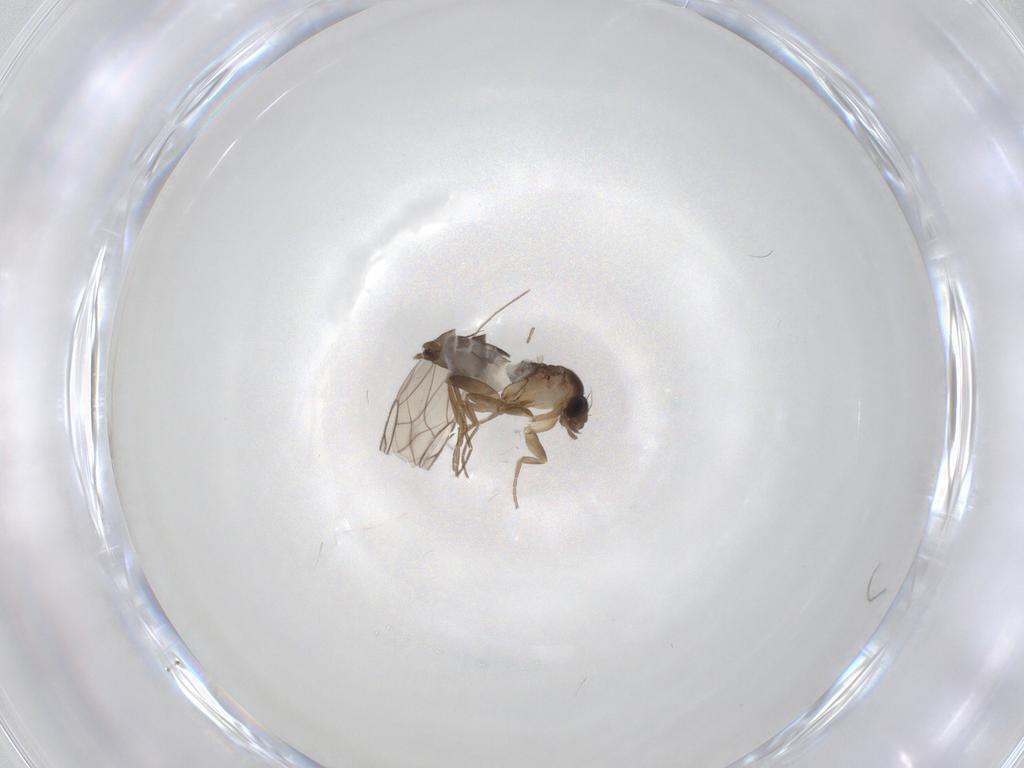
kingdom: Animalia
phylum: Arthropoda
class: Insecta
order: Diptera
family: Phoridae
